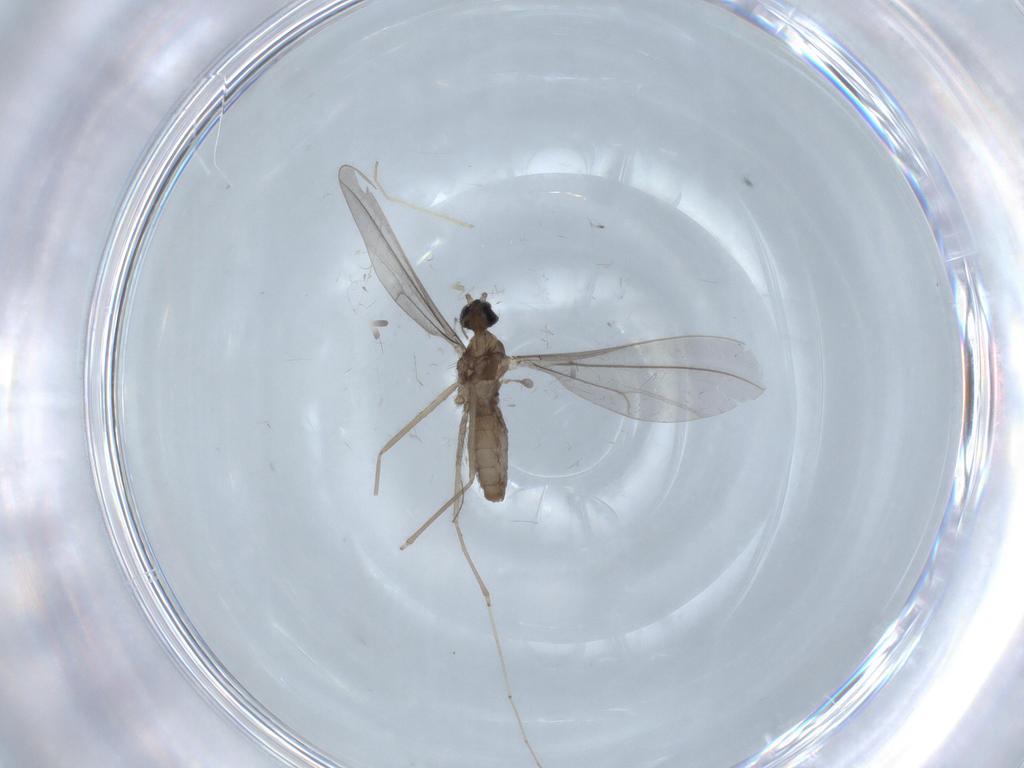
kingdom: Animalia
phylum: Arthropoda
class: Insecta
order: Diptera
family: Cecidomyiidae
